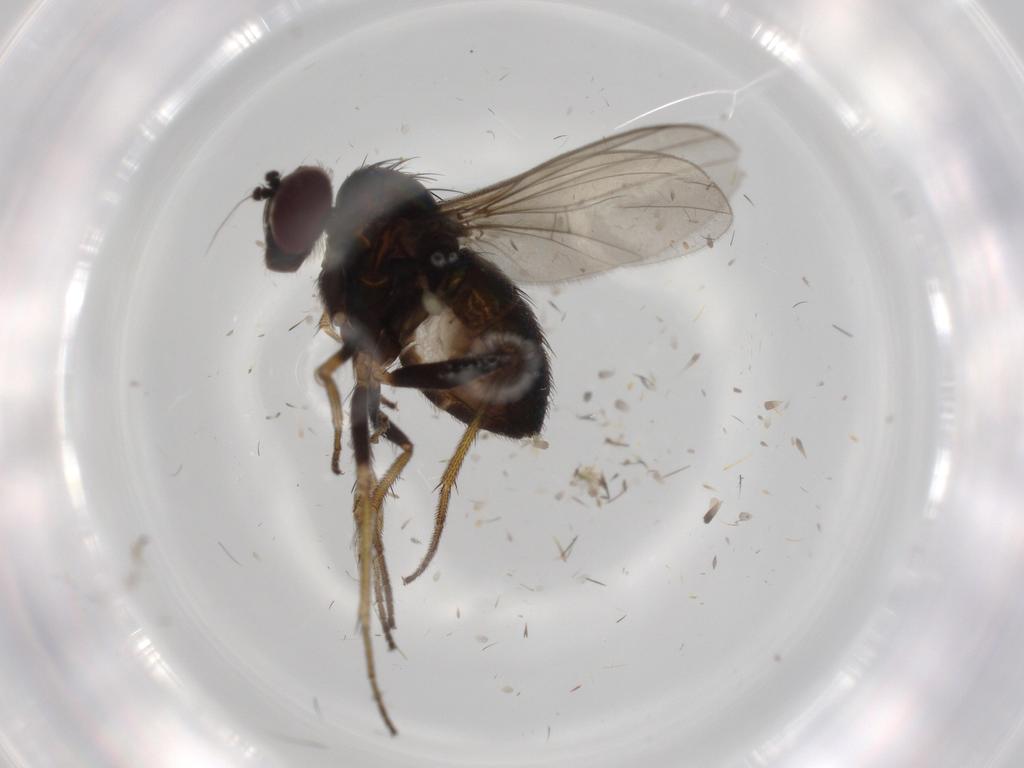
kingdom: Animalia
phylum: Arthropoda
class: Insecta
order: Diptera
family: Dolichopodidae
